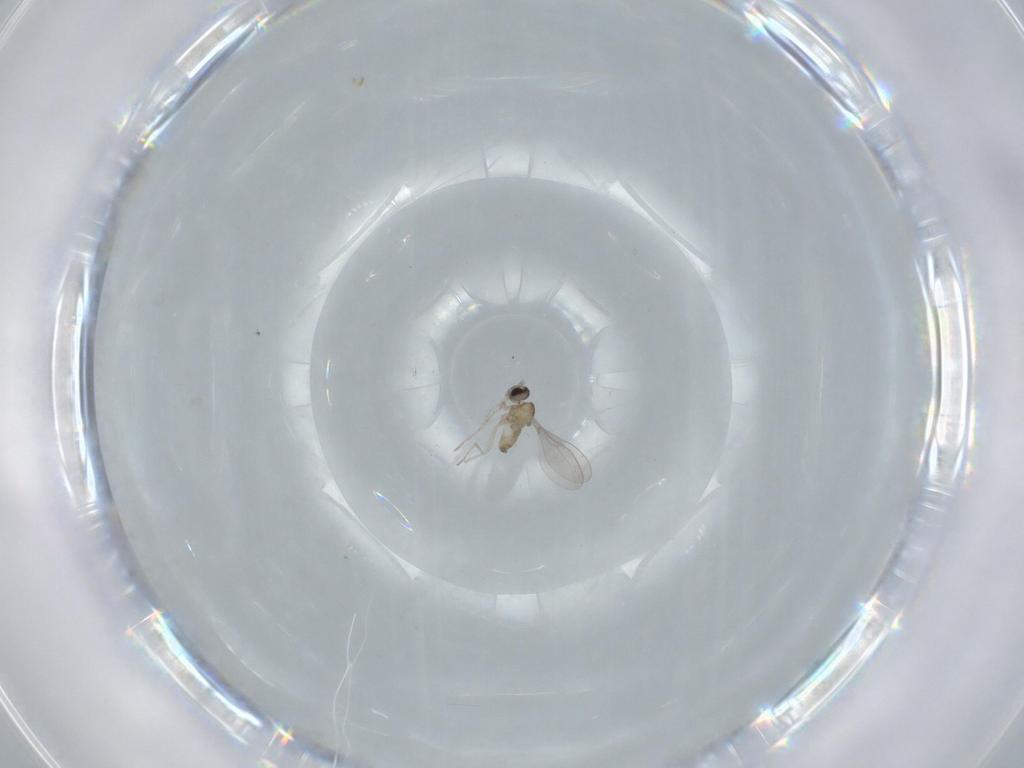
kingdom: Animalia
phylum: Arthropoda
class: Insecta
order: Diptera
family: Cecidomyiidae
